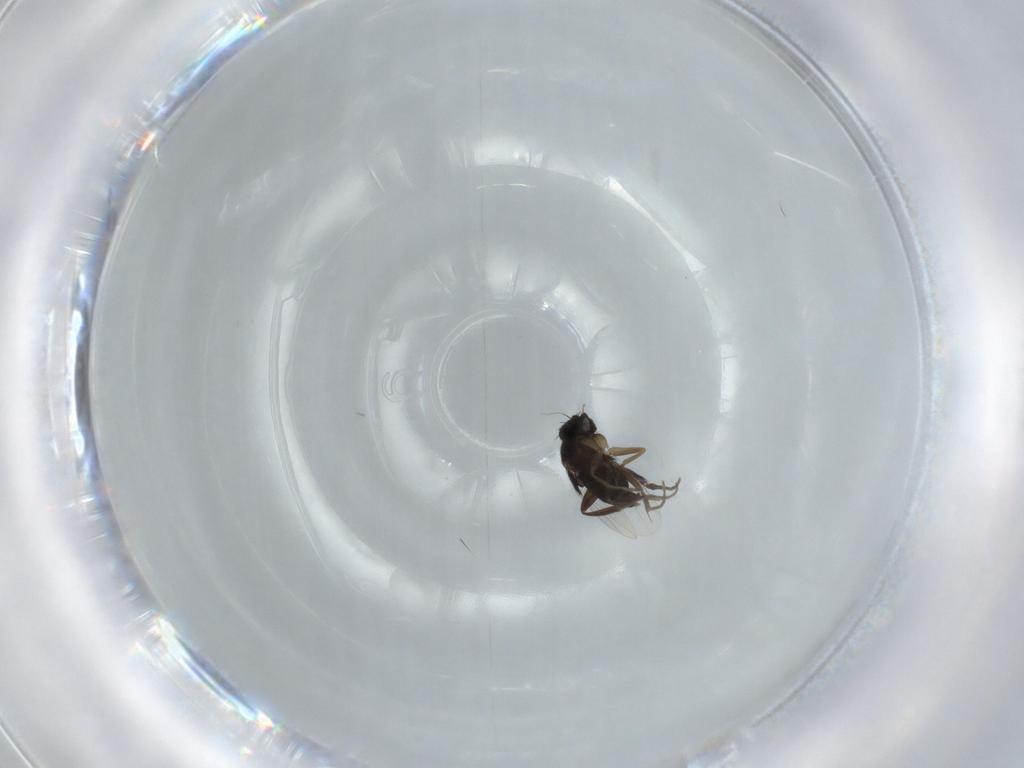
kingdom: Animalia
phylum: Arthropoda
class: Insecta
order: Diptera
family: Phoridae
